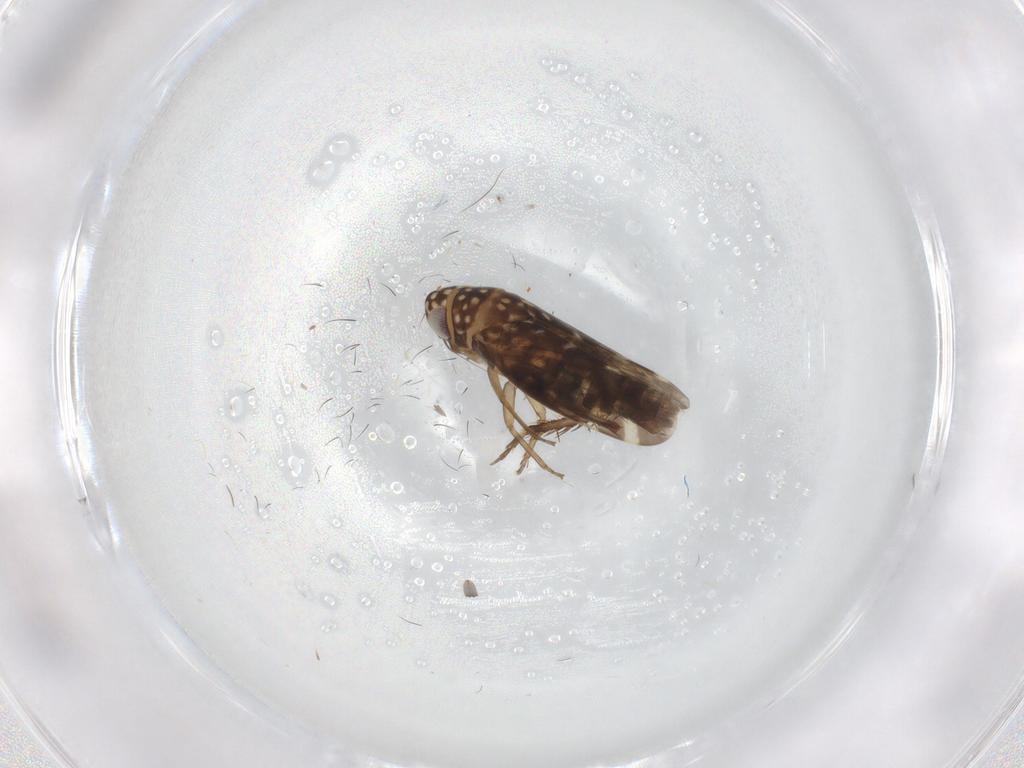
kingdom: Animalia
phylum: Arthropoda
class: Insecta
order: Hemiptera
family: Cicadellidae
